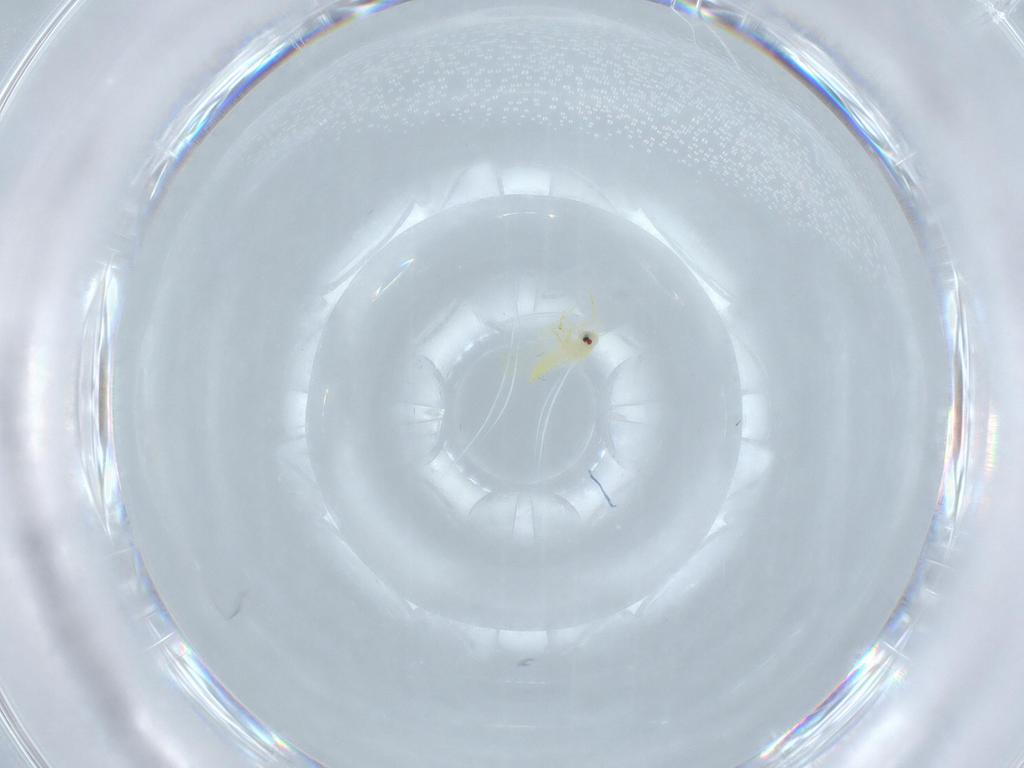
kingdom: Animalia
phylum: Arthropoda
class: Insecta
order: Hemiptera
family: Aleyrodidae
